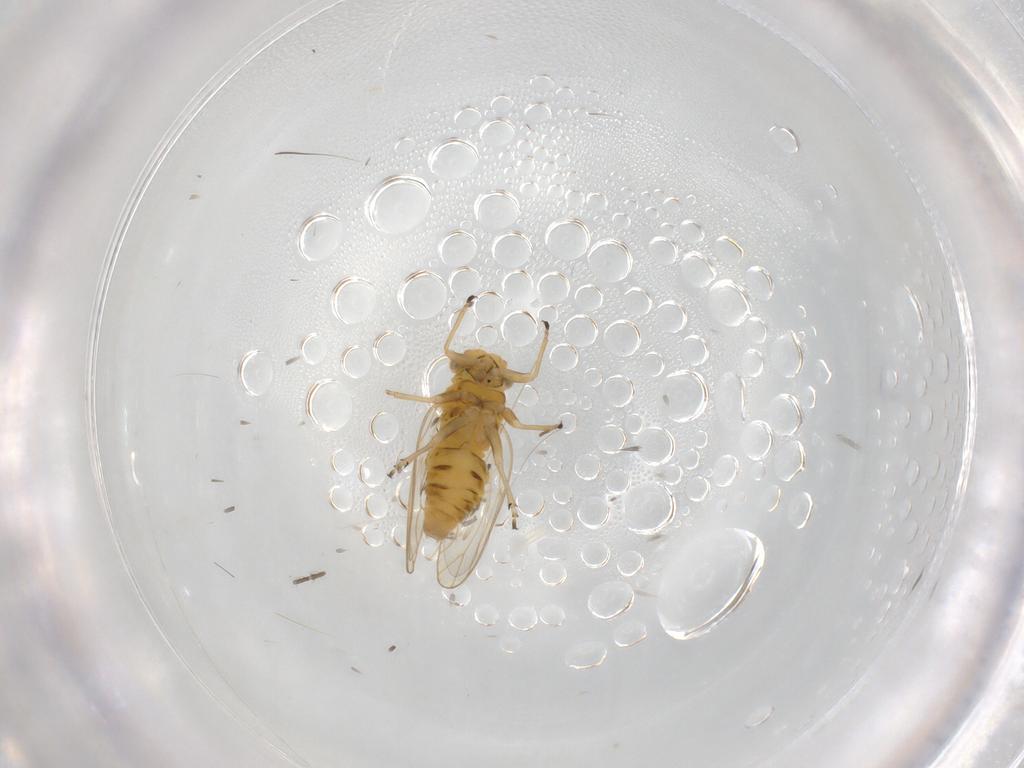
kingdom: Animalia
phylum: Arthropoda
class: Insecta
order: Diptera
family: Chironomidae
